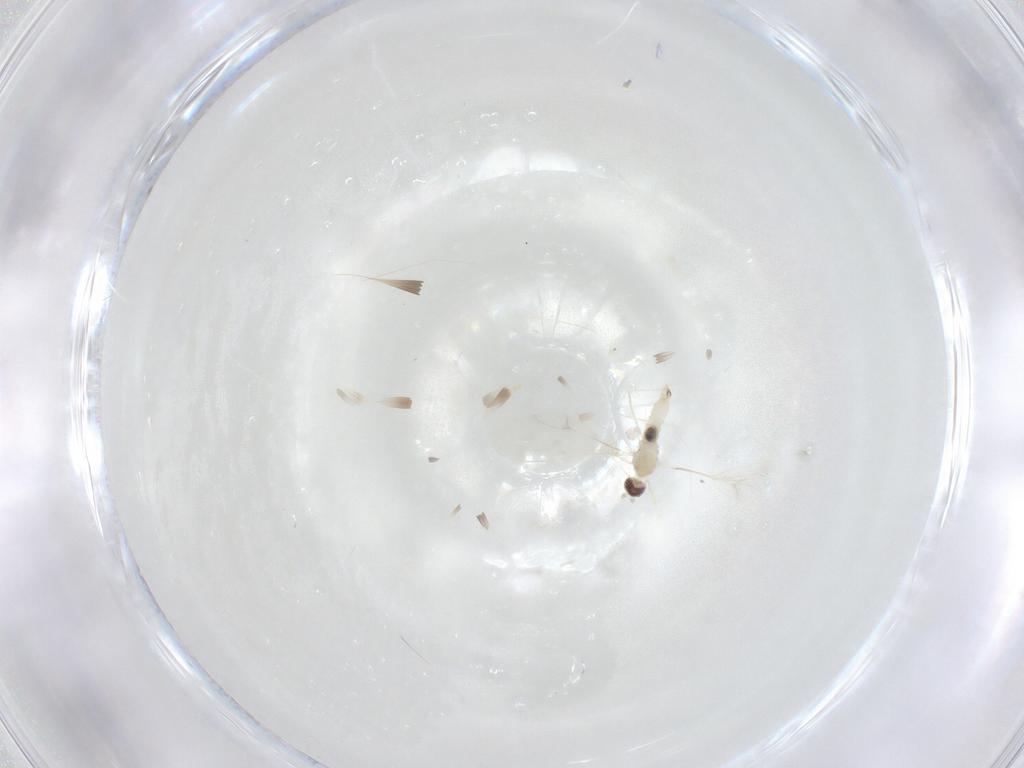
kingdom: Animalia
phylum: Arthropoda
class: Insecta
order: Diptera
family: Cecidomyiidae
